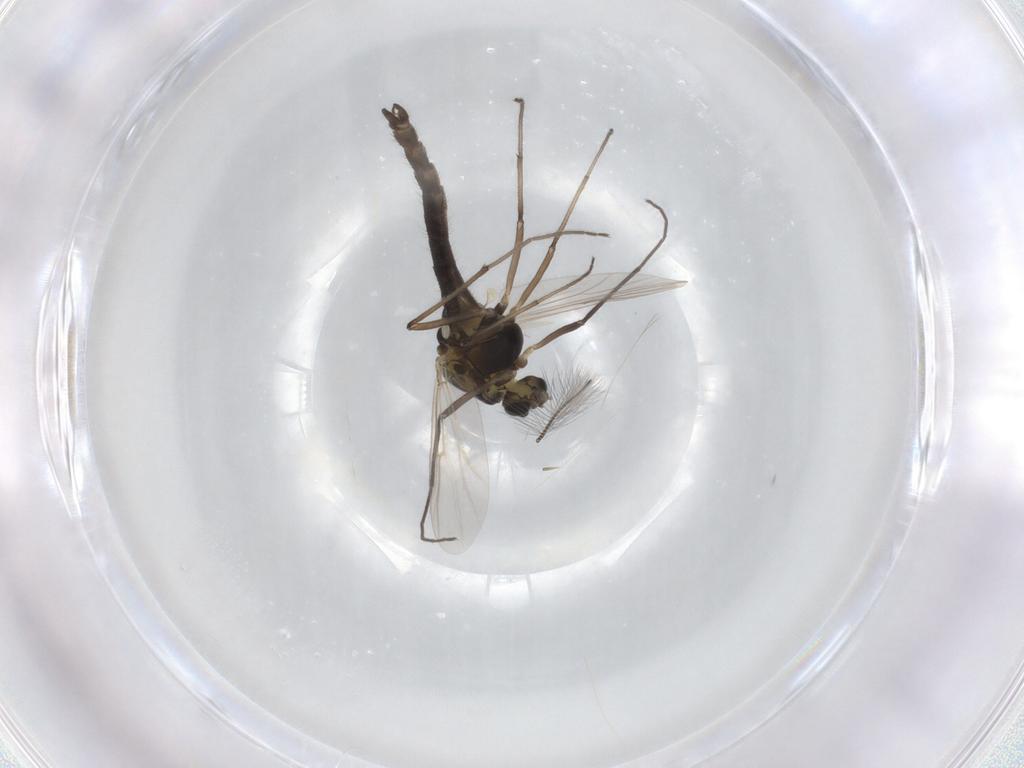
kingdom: Animalia
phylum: Arthropoda
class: Insecta
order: Diptera
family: Chironomidae
